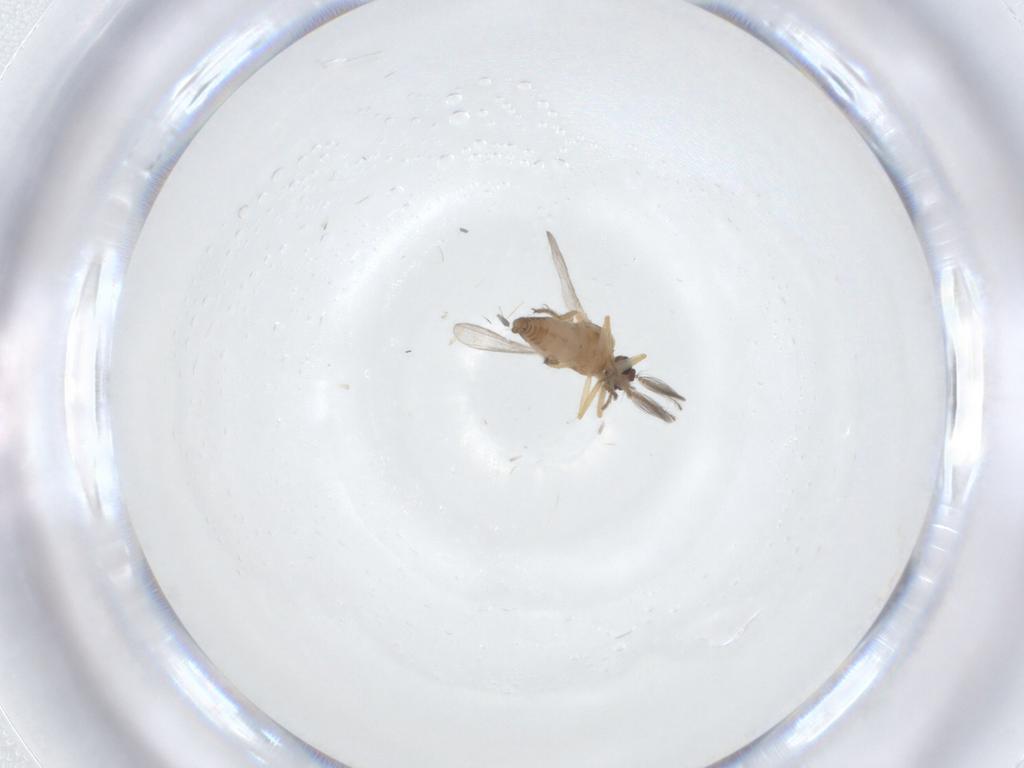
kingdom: Animalia
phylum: Arthropoda
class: Insecta
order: Diptera
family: Ceratopogonidae
